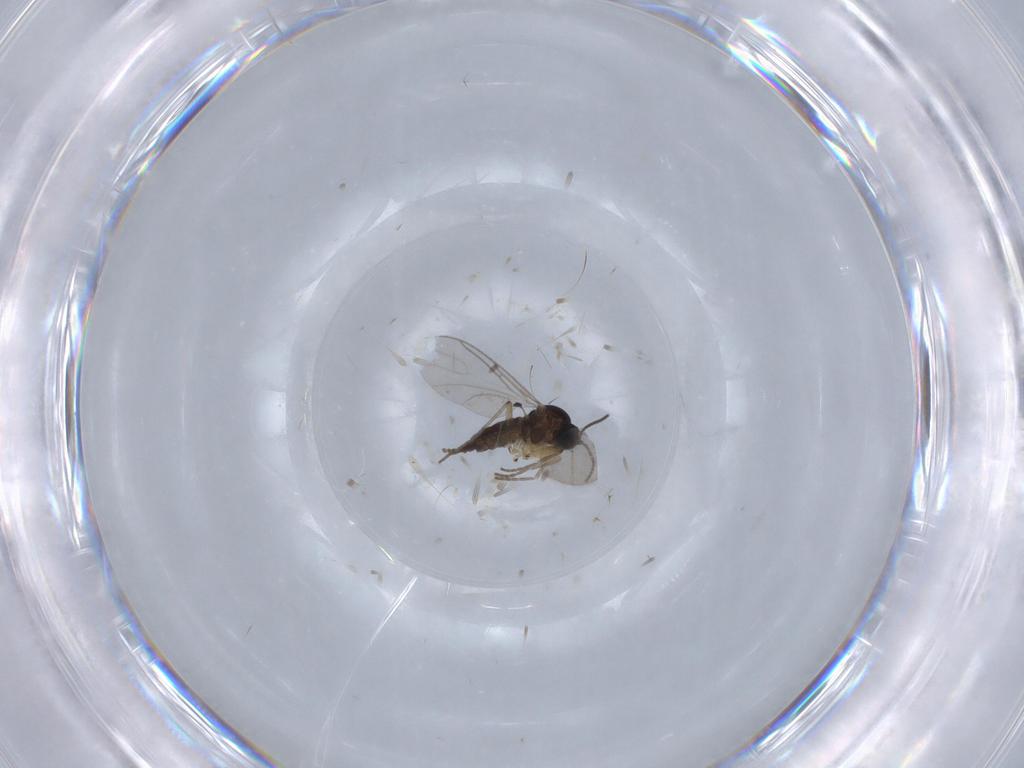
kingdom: Animalia
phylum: Arthropoda
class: Insecta
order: Diptera
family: Sciaridae
